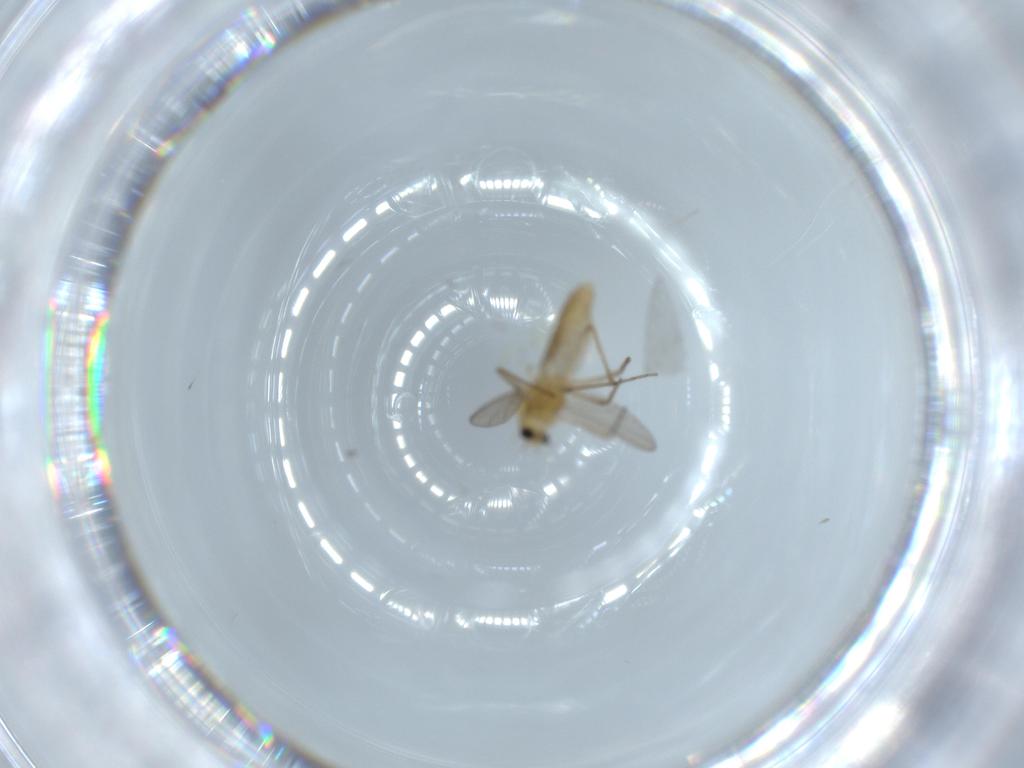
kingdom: Animalia
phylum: Arthropoda
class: Insecta
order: Diptera
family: Chironomidae
